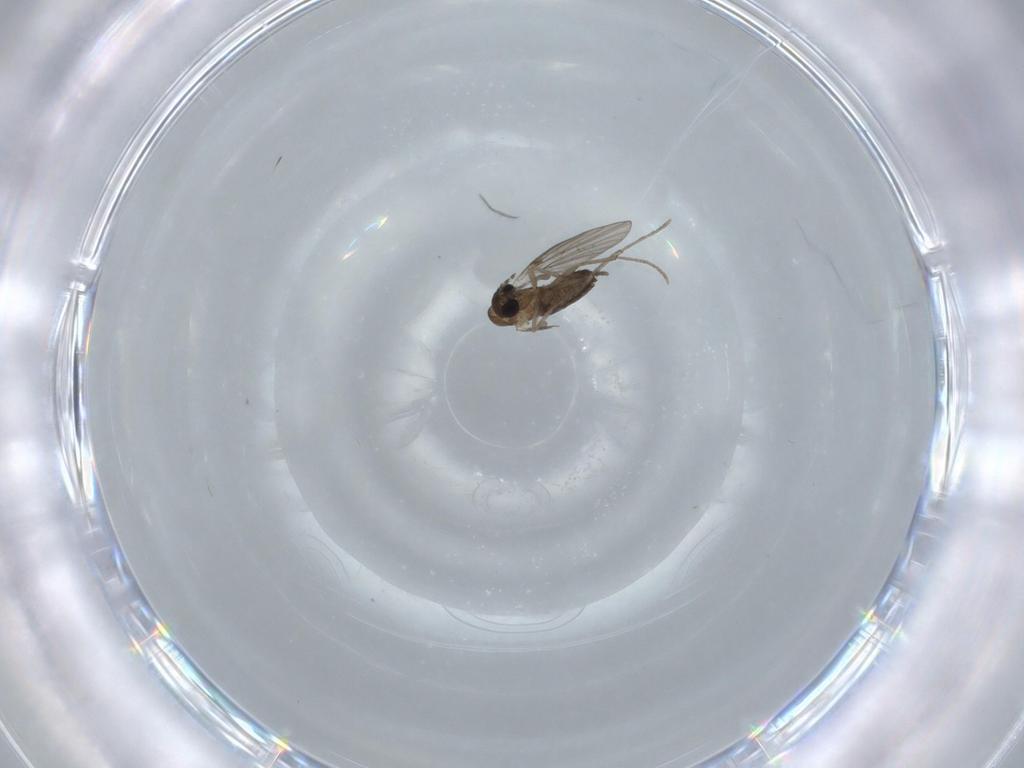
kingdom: Animalia
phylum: Arthropoda
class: Insecta
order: Diptera
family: Psychodidae
